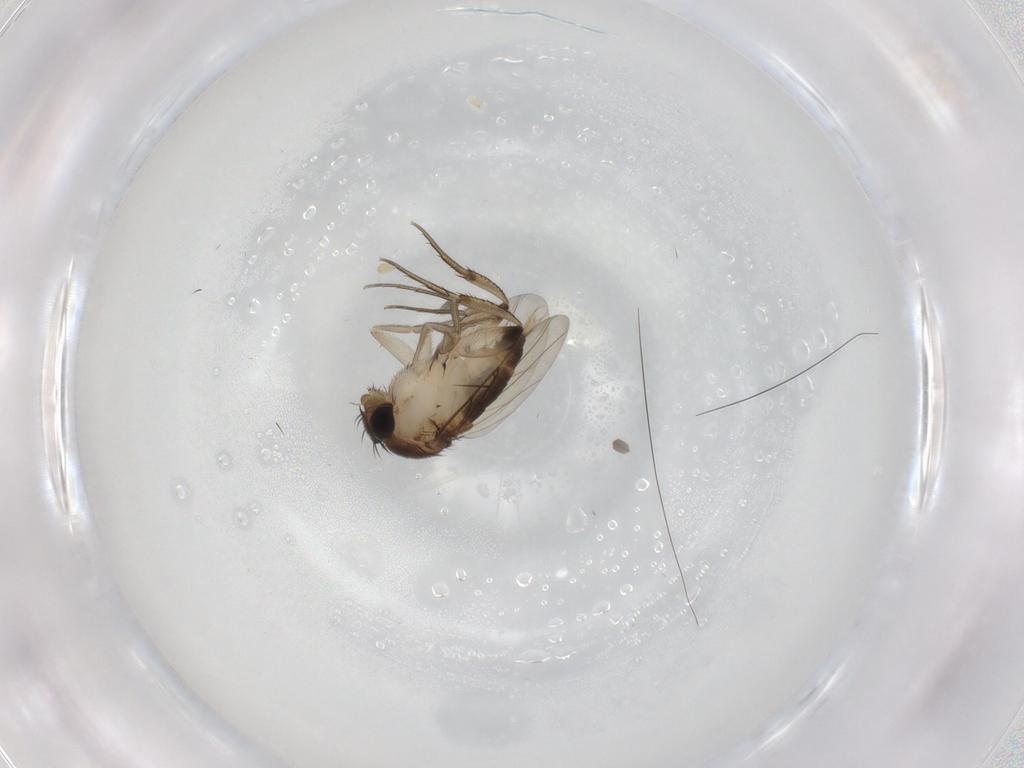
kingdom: Animalia
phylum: Arthropoda
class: Insecta
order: Diptera
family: Phoridae
